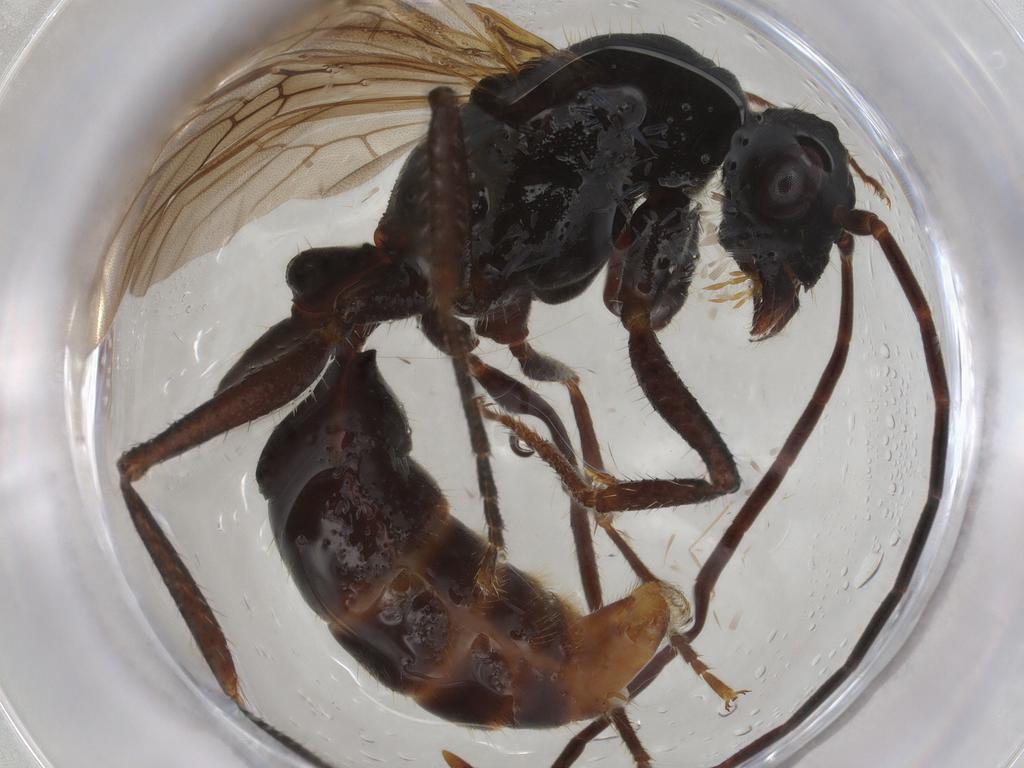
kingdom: Animalia
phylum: Arthropoda
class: Insecta
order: Hymenoptera
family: Formicidae
